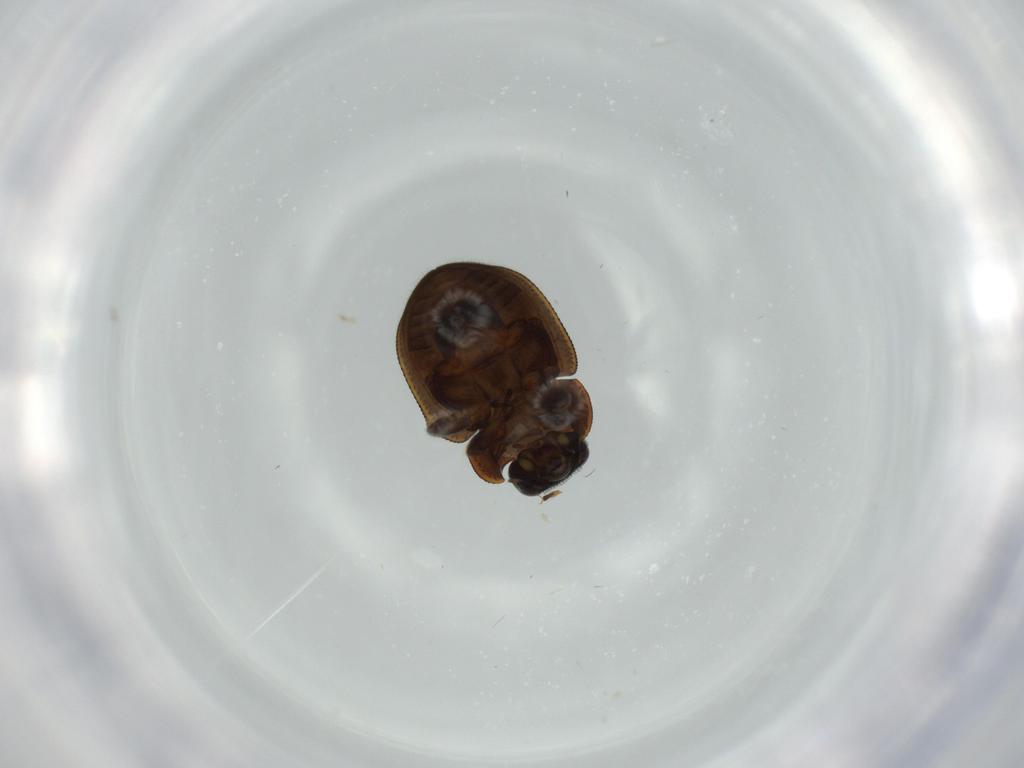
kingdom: Animalia
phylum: Arthropoda
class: Insecta
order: Coleoptera
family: Coccinellidae
